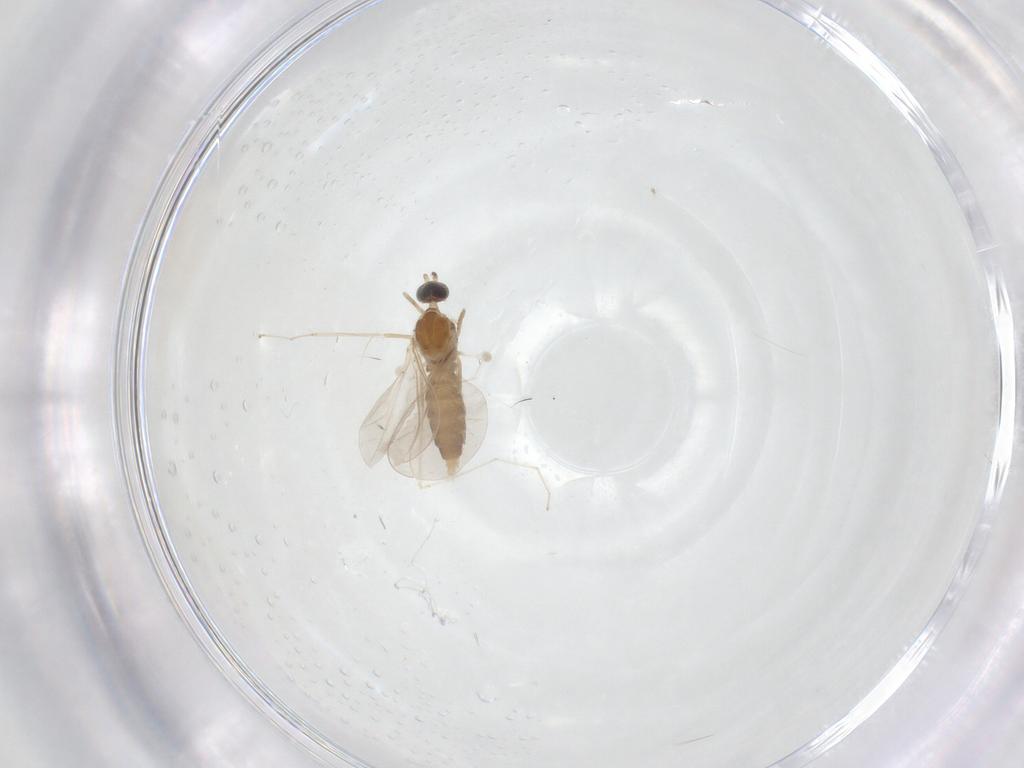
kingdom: Animalia
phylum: Arthropoda
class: Insecta
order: Diptera
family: Cecidomyiidae
